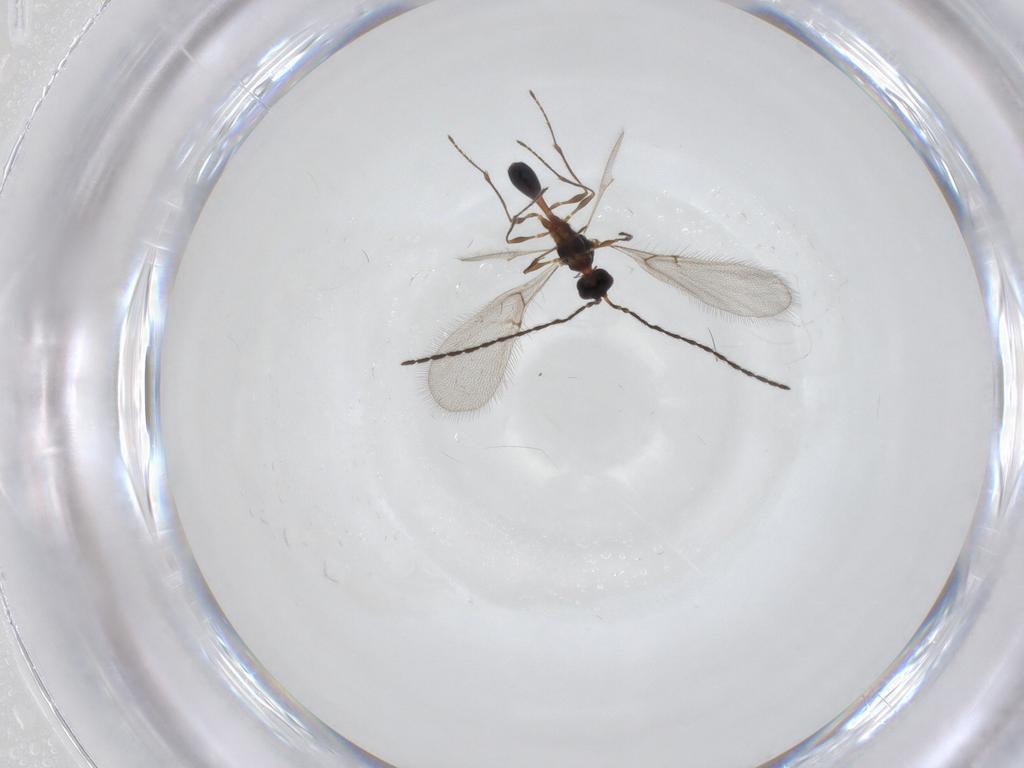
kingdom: Animalia
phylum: Arthropoda
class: Insecta
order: Hymenoptera
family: Diapriidae
